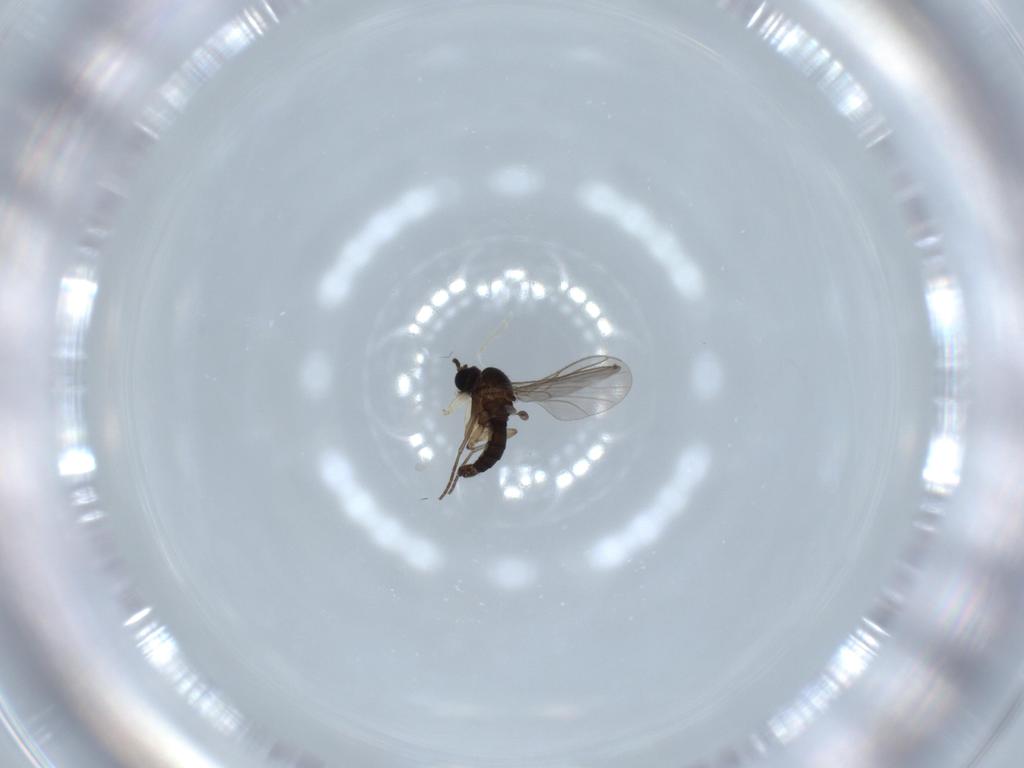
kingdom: Animalia
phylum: Arthropoda
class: Insecta
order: Diptera
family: Sciaridae
